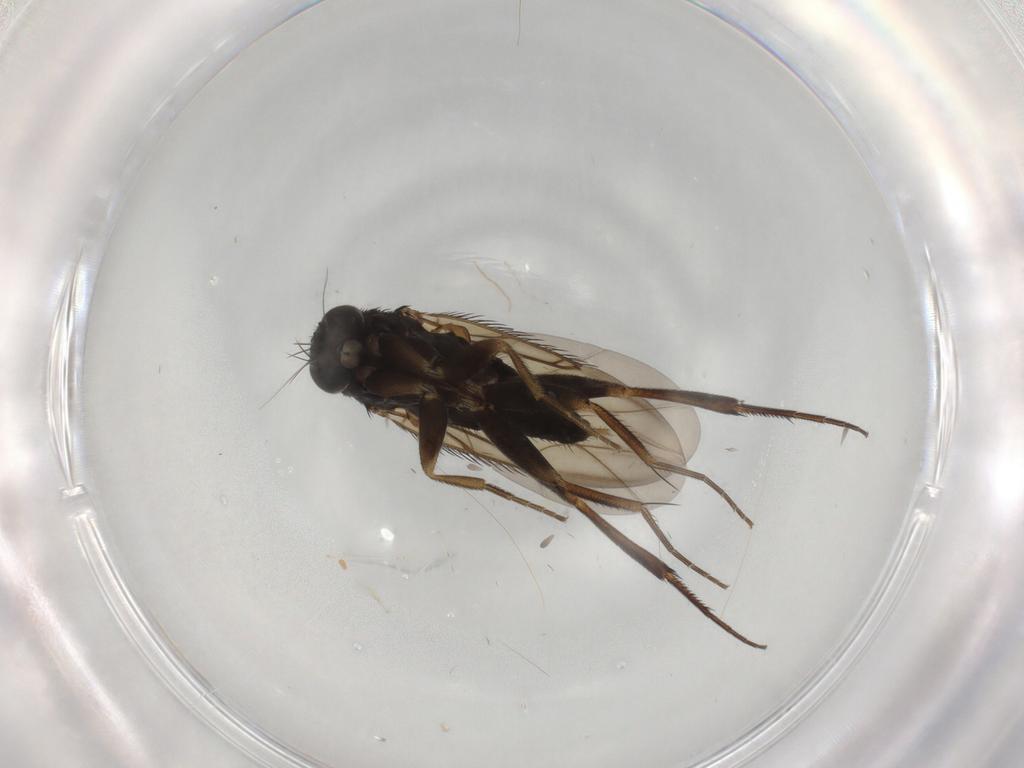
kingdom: Animalia
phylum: Arthropoda
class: Insecta
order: Diptera
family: Phoridae
